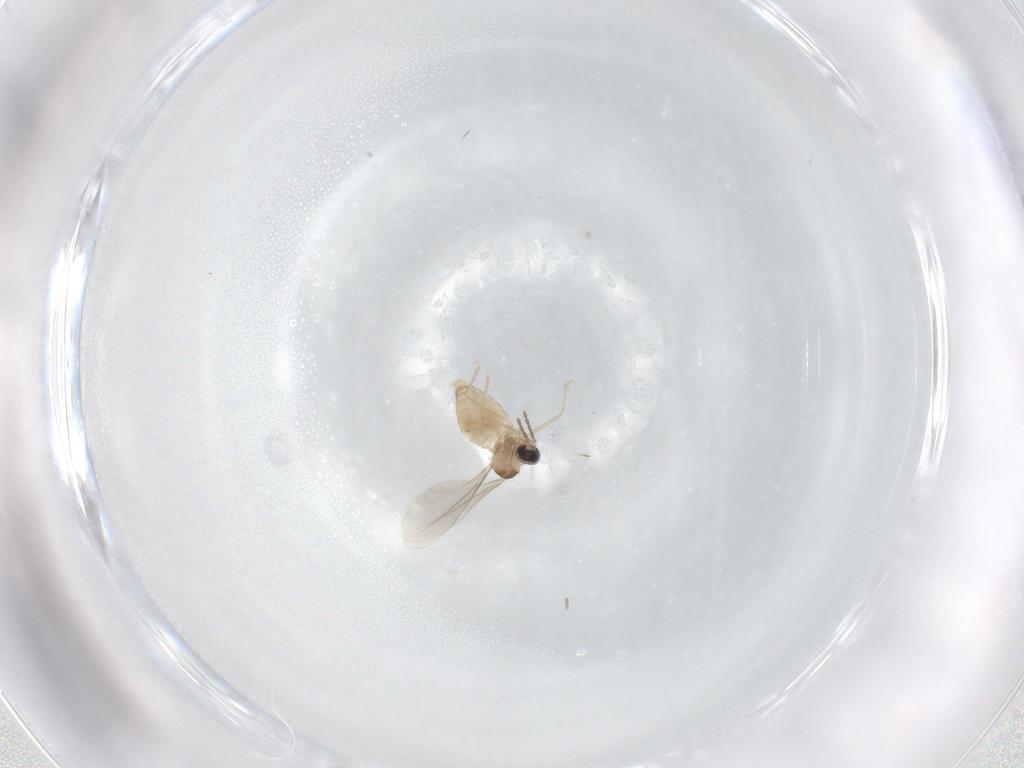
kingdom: Animalia
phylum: Arthropoda
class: Insecta
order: Diptera
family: Cecidomyiidae
